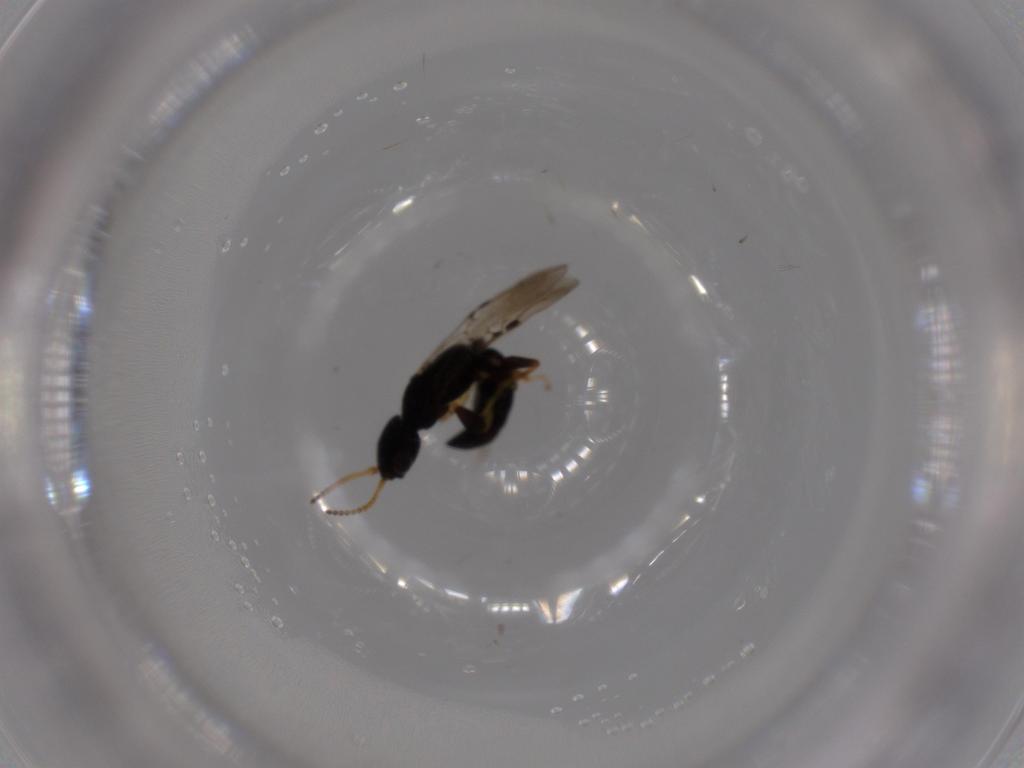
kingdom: Animalia
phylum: Arthropoda
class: Insecta
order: Hymenoptera
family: Bethylidae
